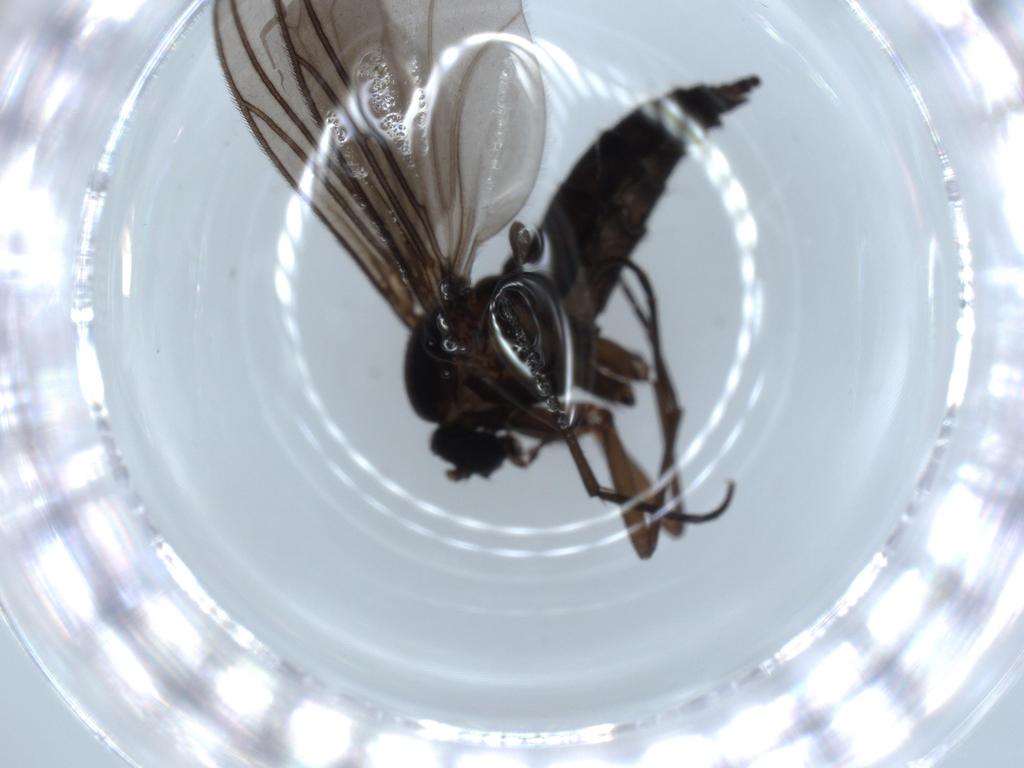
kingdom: Animalia
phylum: Arthropoda
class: Insecta
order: Diptera
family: Sciaridae
